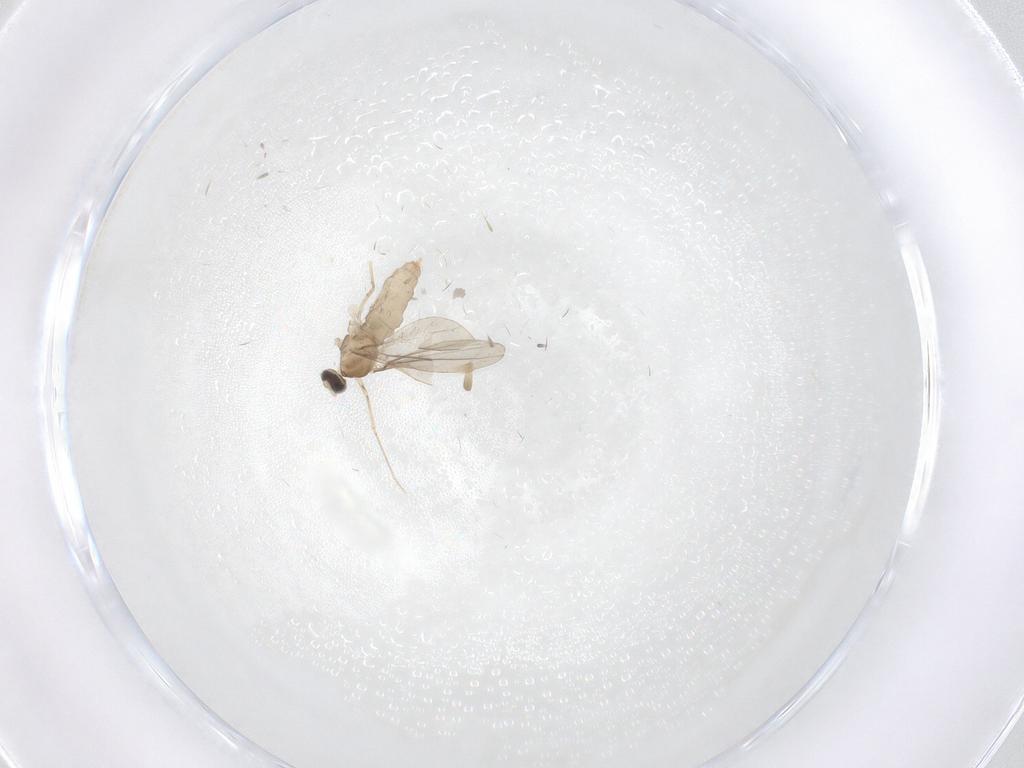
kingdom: Animalia
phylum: Arthropoda
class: Insecta
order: Diptera
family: Cecidomyiidae
